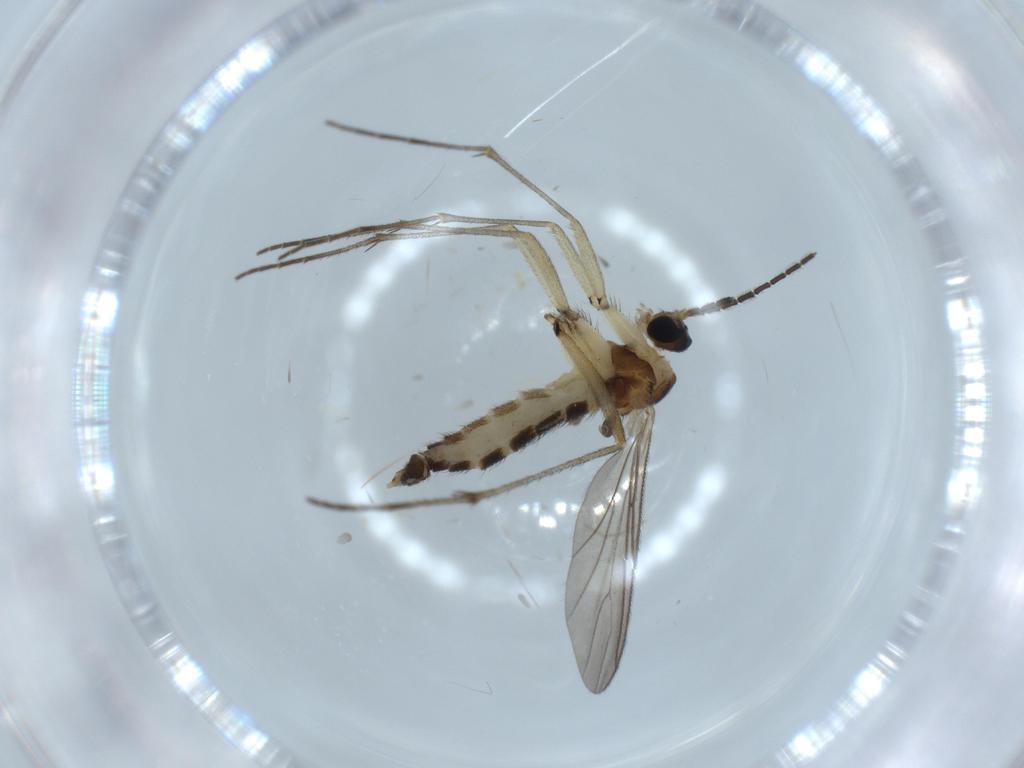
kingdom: Animalia
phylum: Arthropoda
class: Insecta
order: Diptera
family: Sciaridae
